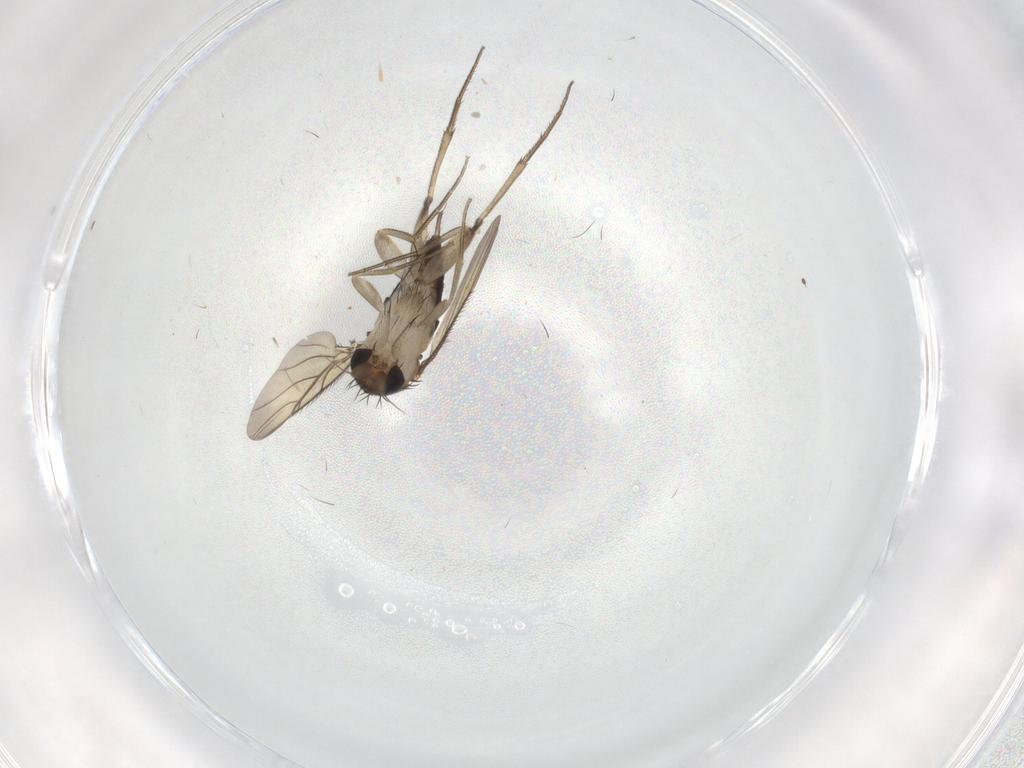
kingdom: Animalia
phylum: Arthropoda
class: Insecta
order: Diptera
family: Phoridae
